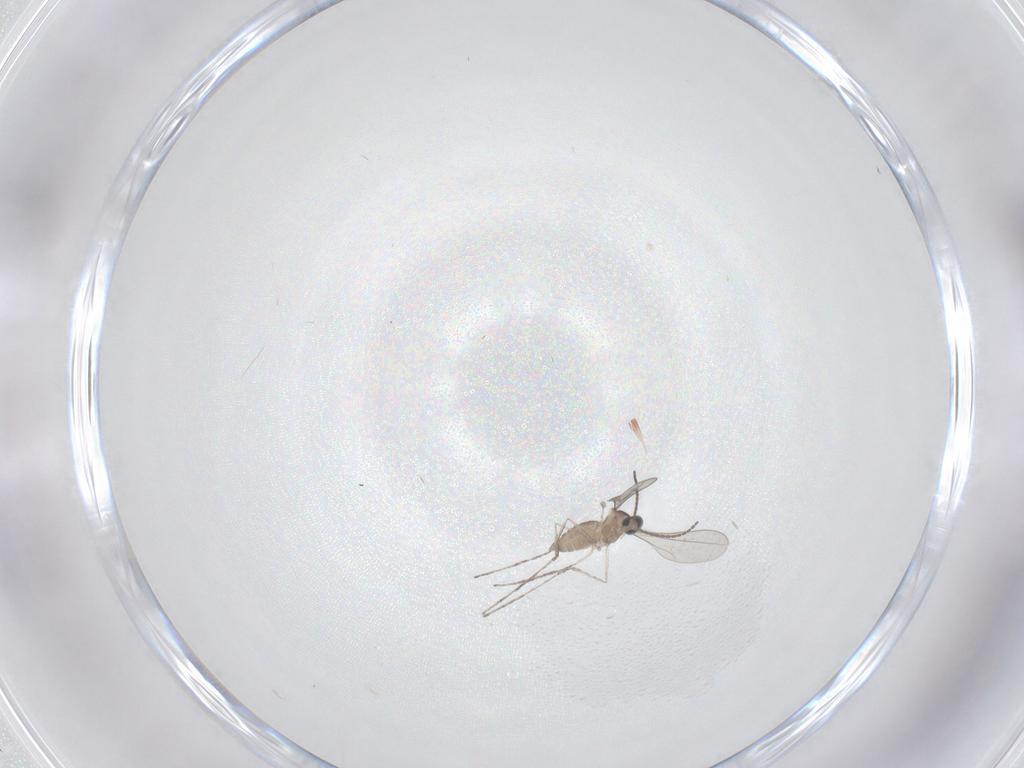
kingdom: Animalia
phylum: Arthropoda
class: Insecta
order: Diptera
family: Cecidomyiidae
